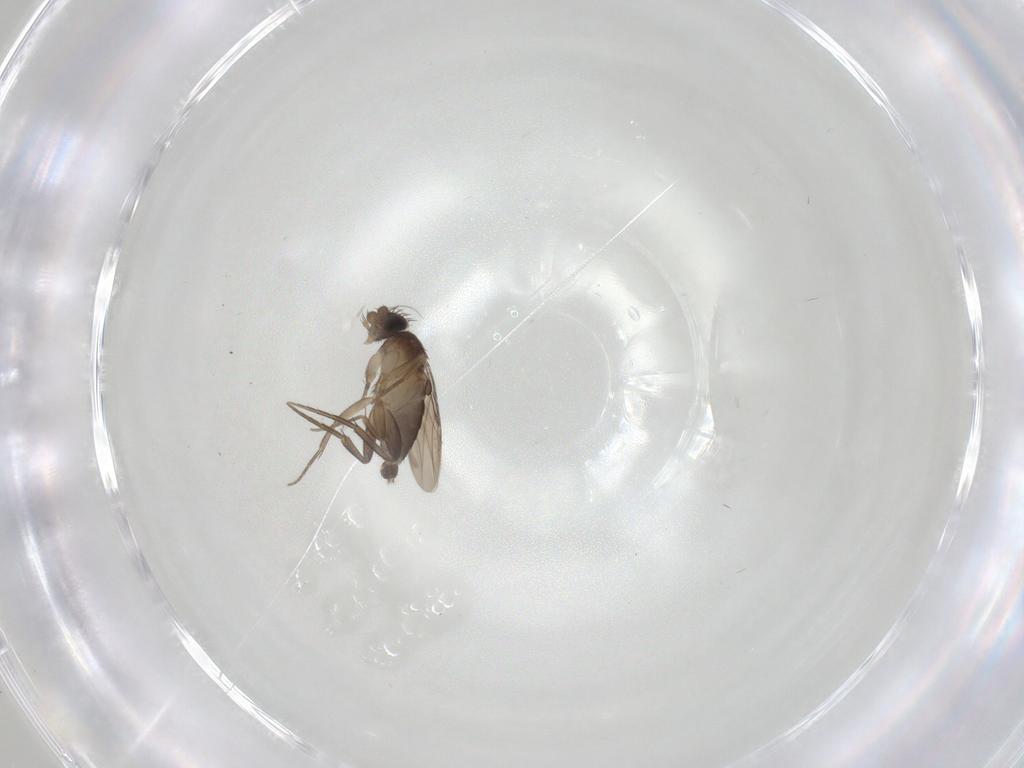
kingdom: Animalia
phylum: Arthropoda
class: Insecta
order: Diptera
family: Phoridae
